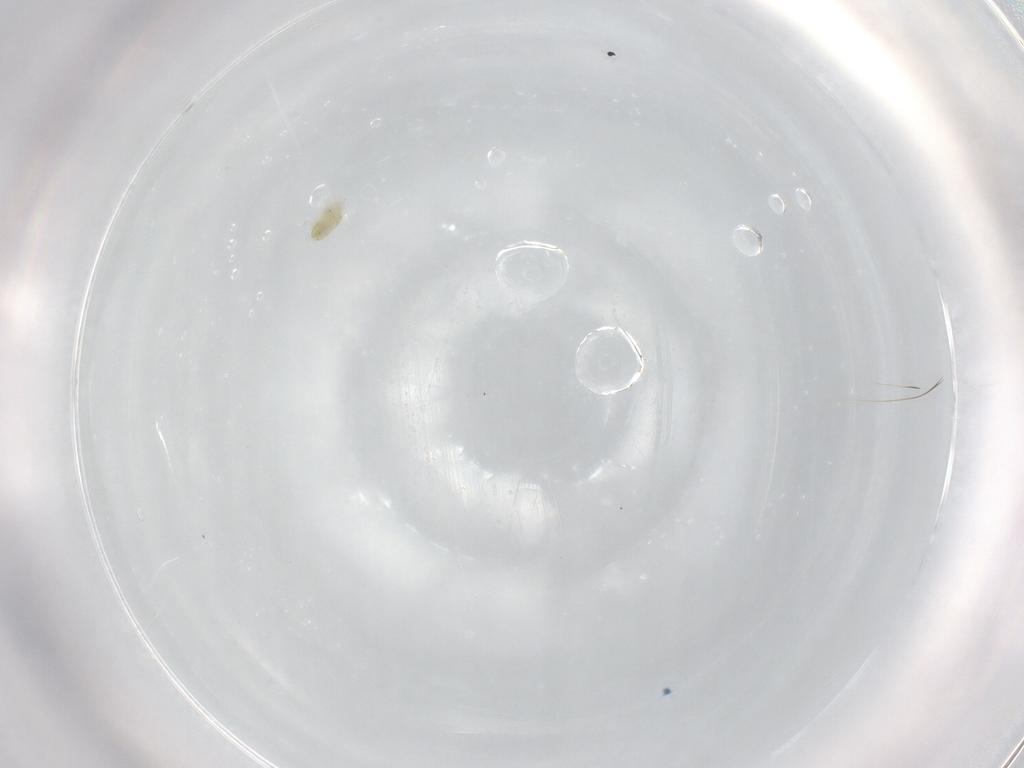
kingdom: Animalia
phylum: Arthropoda
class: Arachnida
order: Trombidiformes
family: Eupodidae
